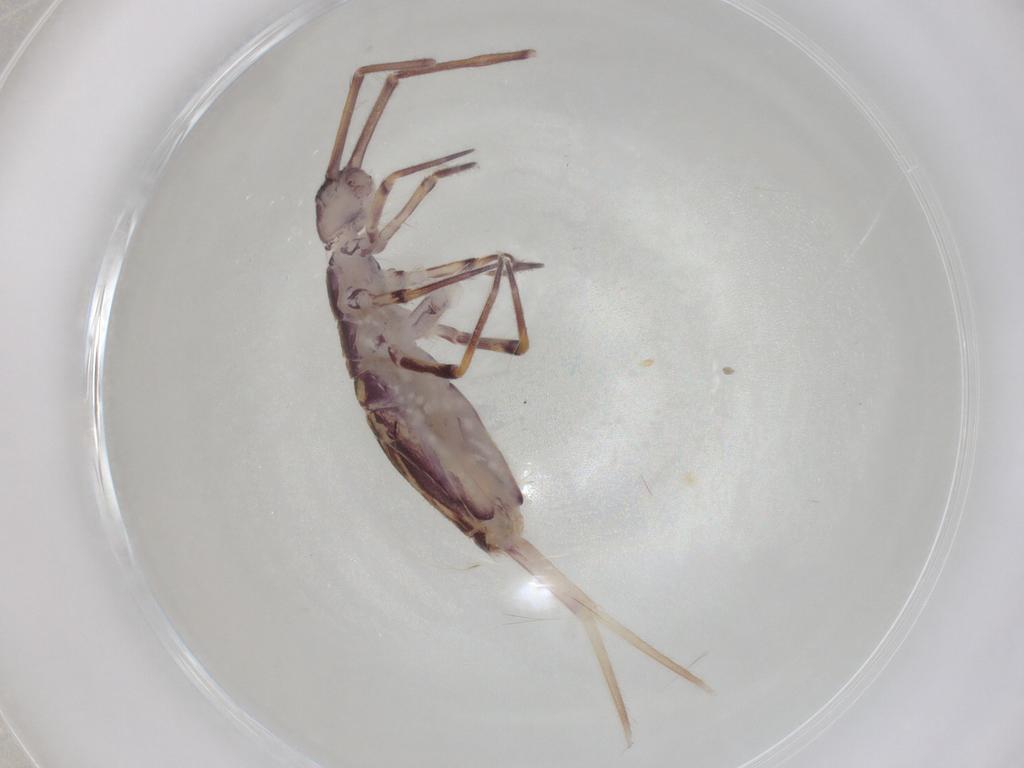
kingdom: Animalia
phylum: Arthropoda
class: Collembola
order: Entomobryomorpha
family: Entomobryidae
